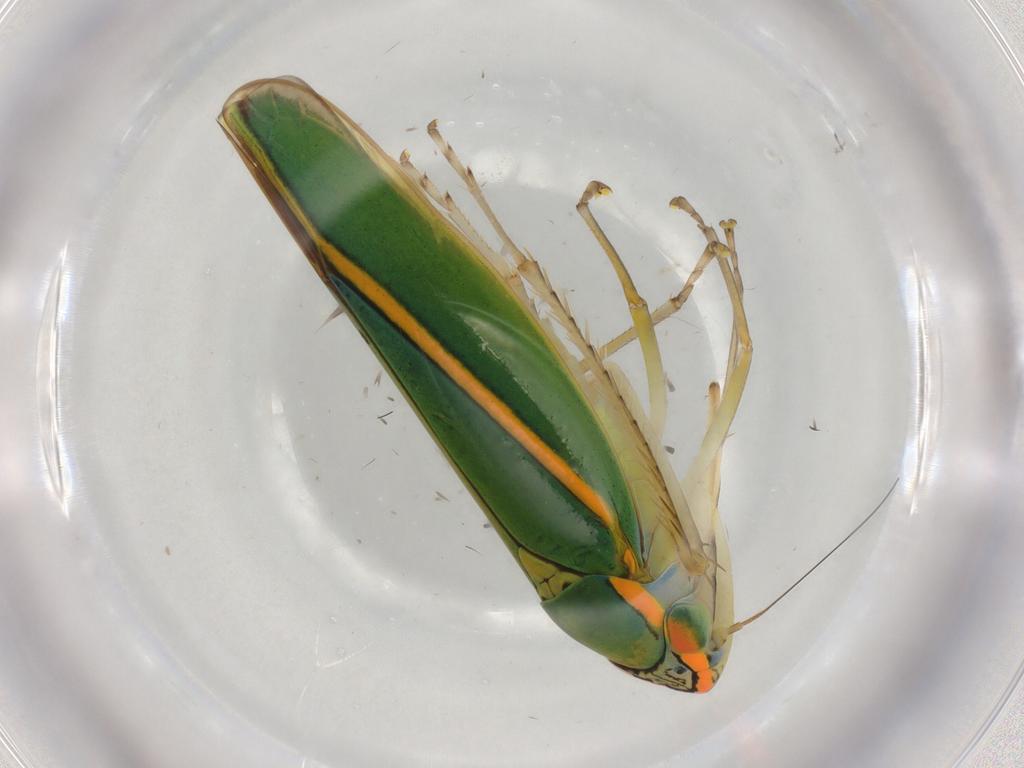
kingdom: Animalia
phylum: Arthropoda
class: Insecta
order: Hemiptera
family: Cicadellidae
